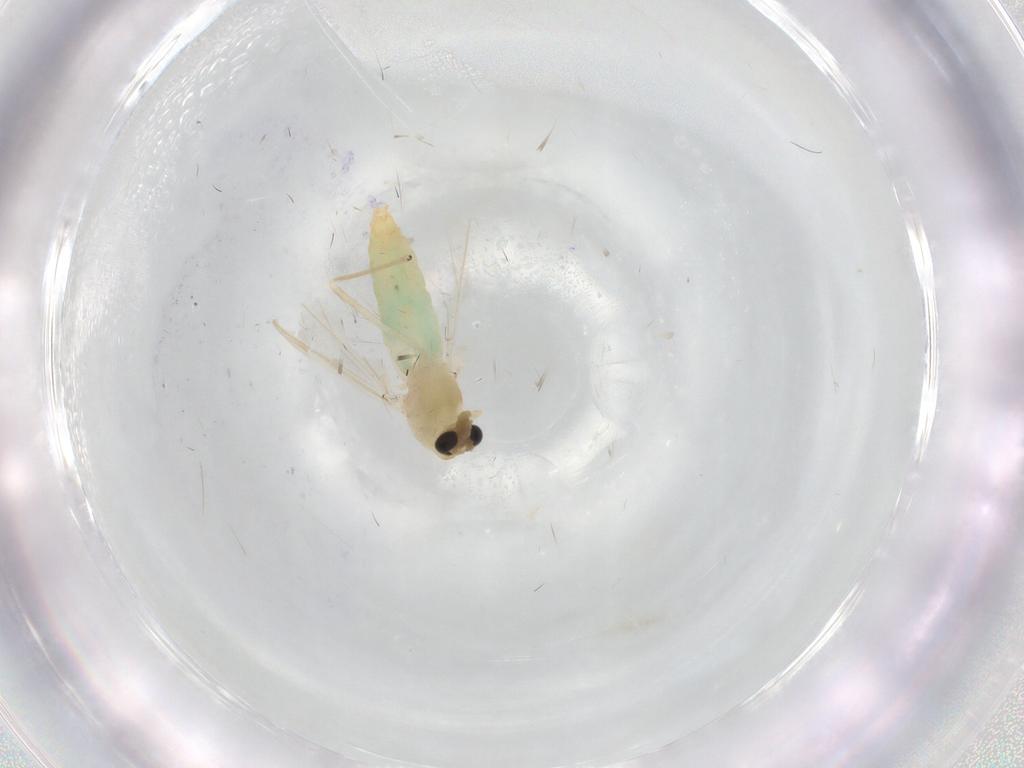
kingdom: Animalia
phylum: Arthropoda
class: Insecta
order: Diptera
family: Chironomidae
